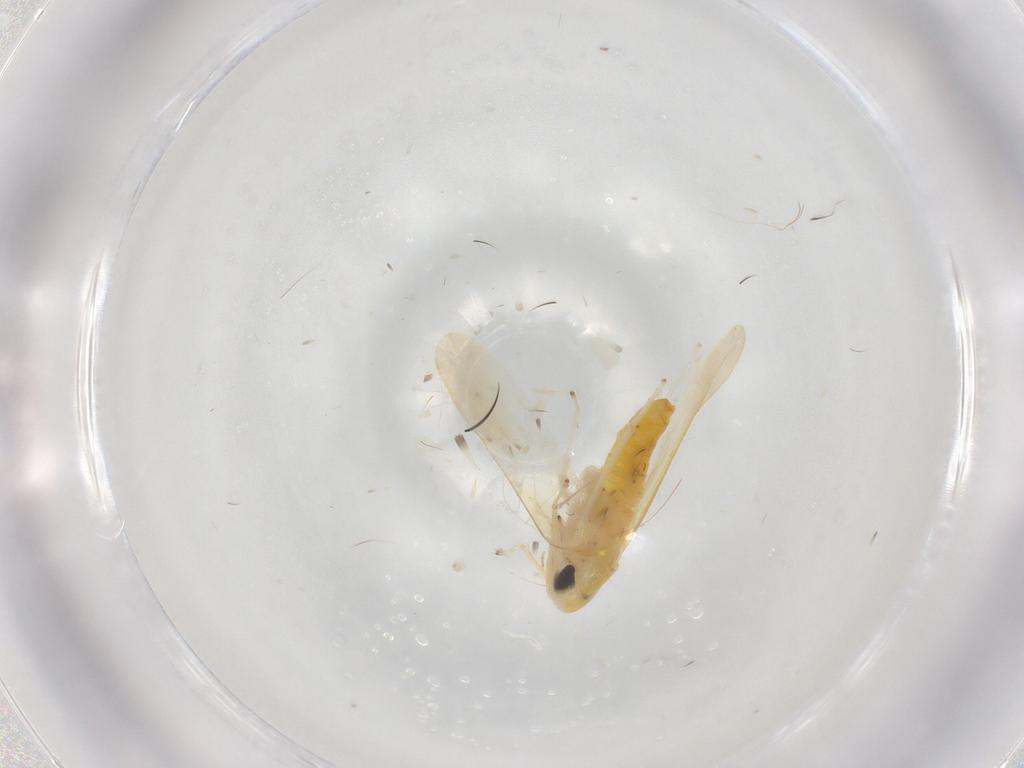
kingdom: Animalia
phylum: Arthropoda
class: Insecta
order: Hemiptera
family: Cicadellidae
